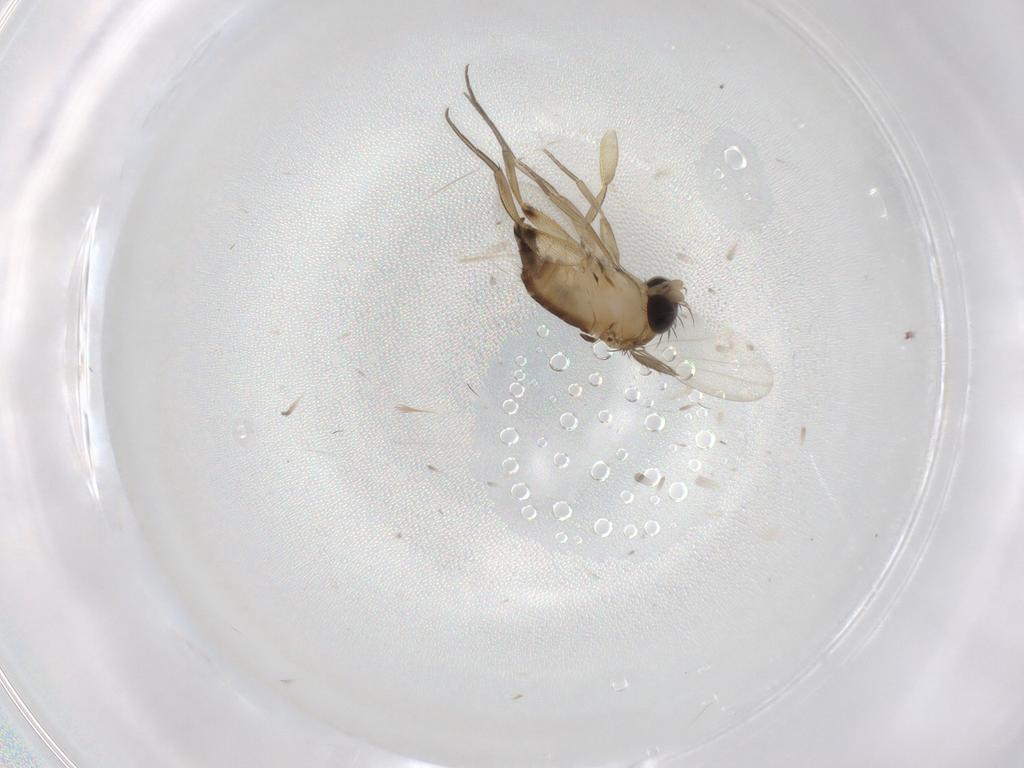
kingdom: Animalia
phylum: Arthropoda
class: Insecta
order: Diptera
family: Phoridae
